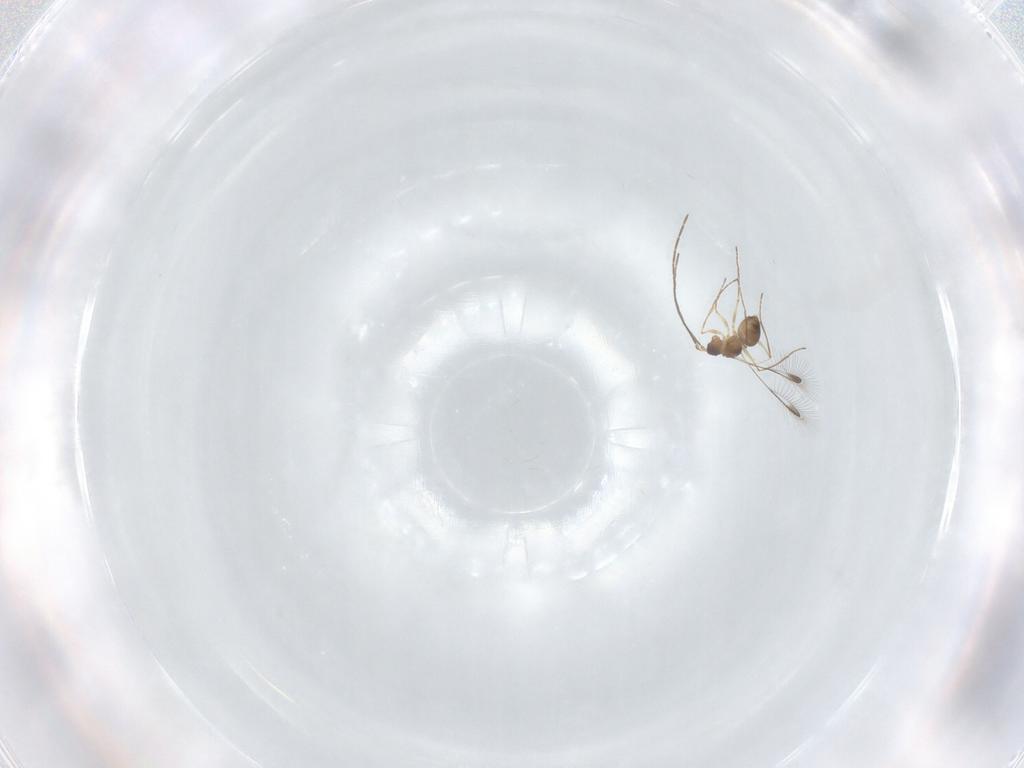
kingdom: Animalia
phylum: Arthropoda
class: Insecta
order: Hymenoptera
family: Mymaridae
